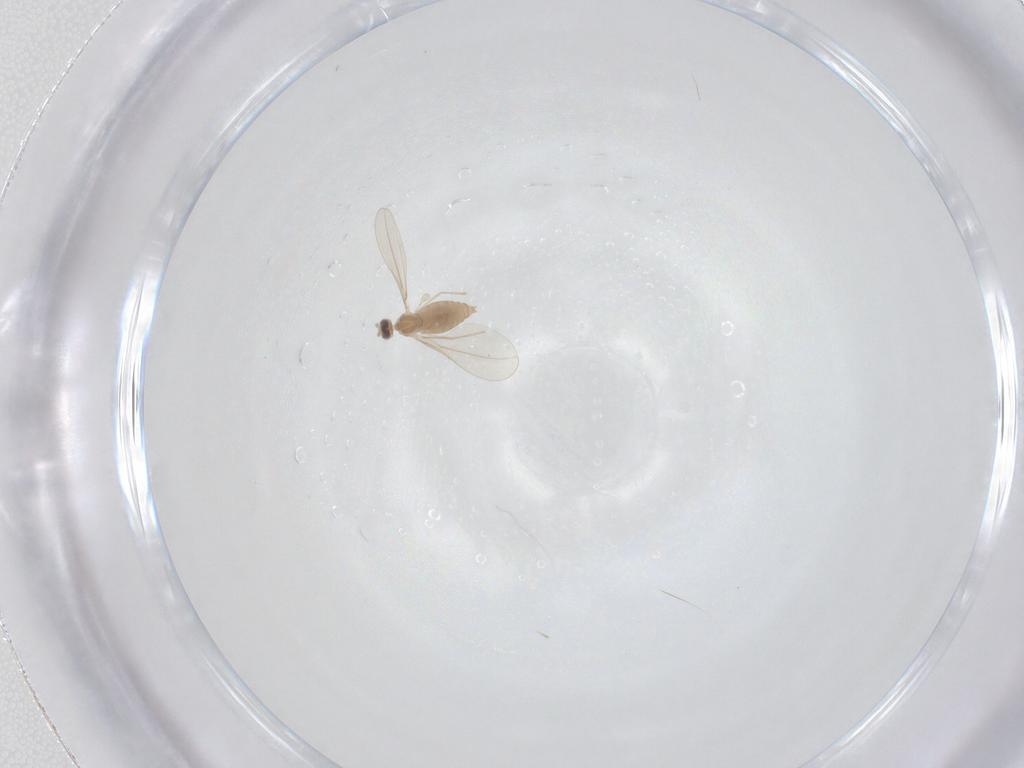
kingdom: Animalia
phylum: Arthropoda
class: Insecta
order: Diptera
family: Cecidomyiidae
